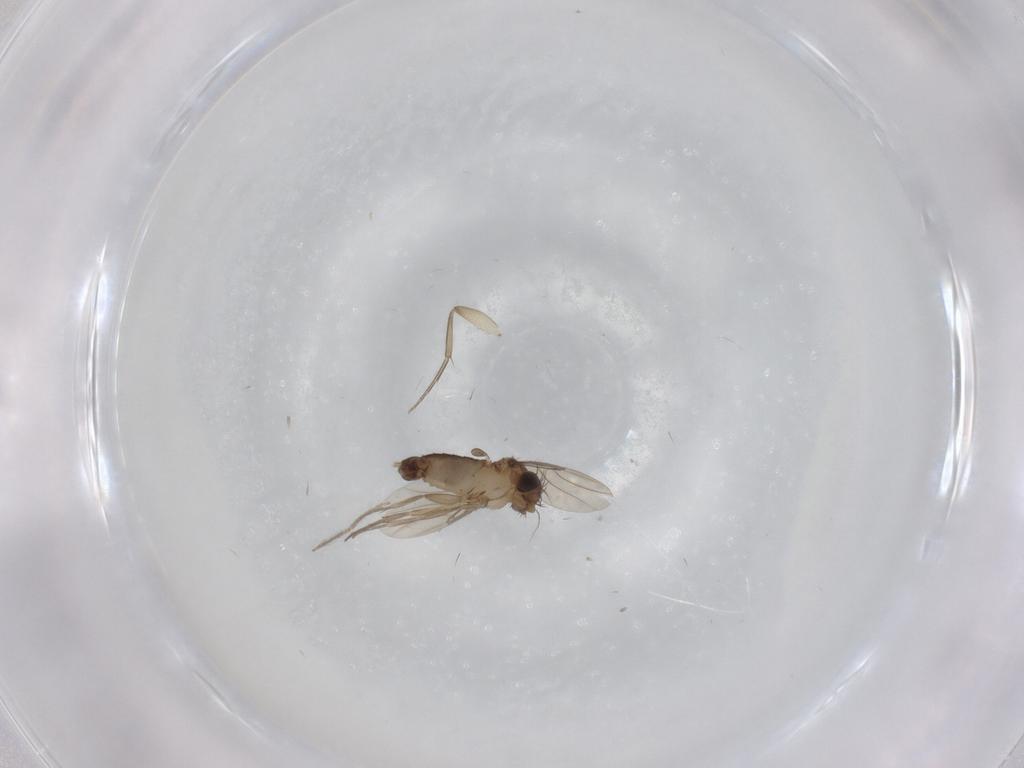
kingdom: Animalia
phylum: Arthropoda
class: Insecta
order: Diptera
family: Phoridae
